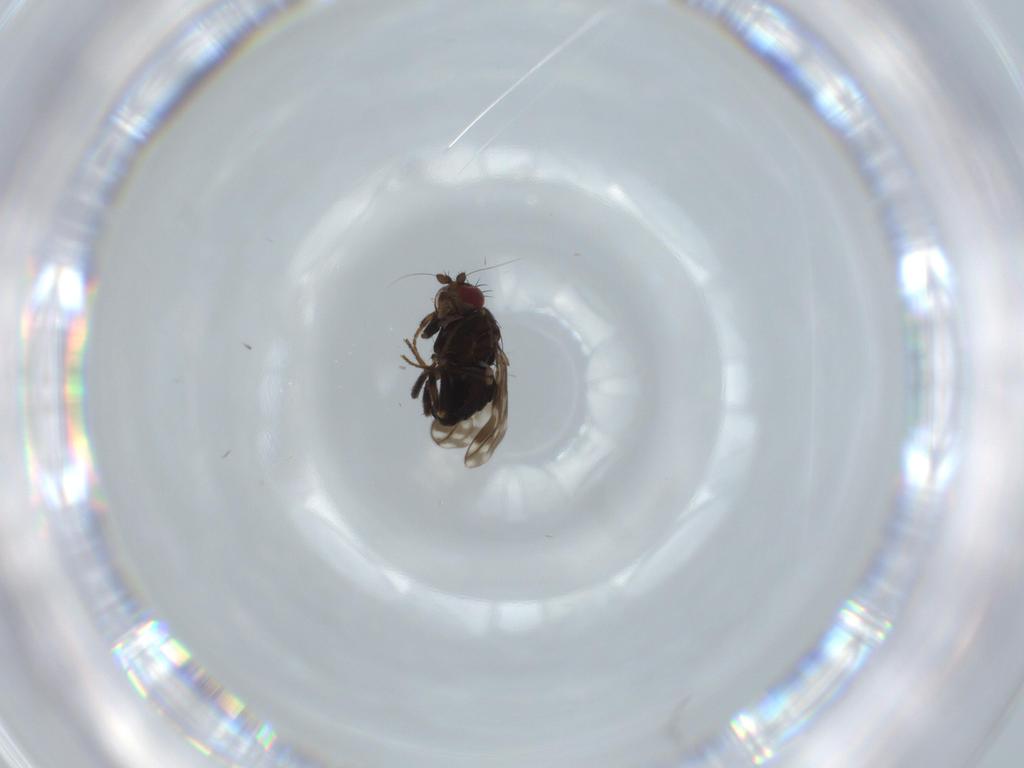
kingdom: Animalia
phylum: Arthropoda
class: Insecta
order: Diptera
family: Sphaeroceridae
